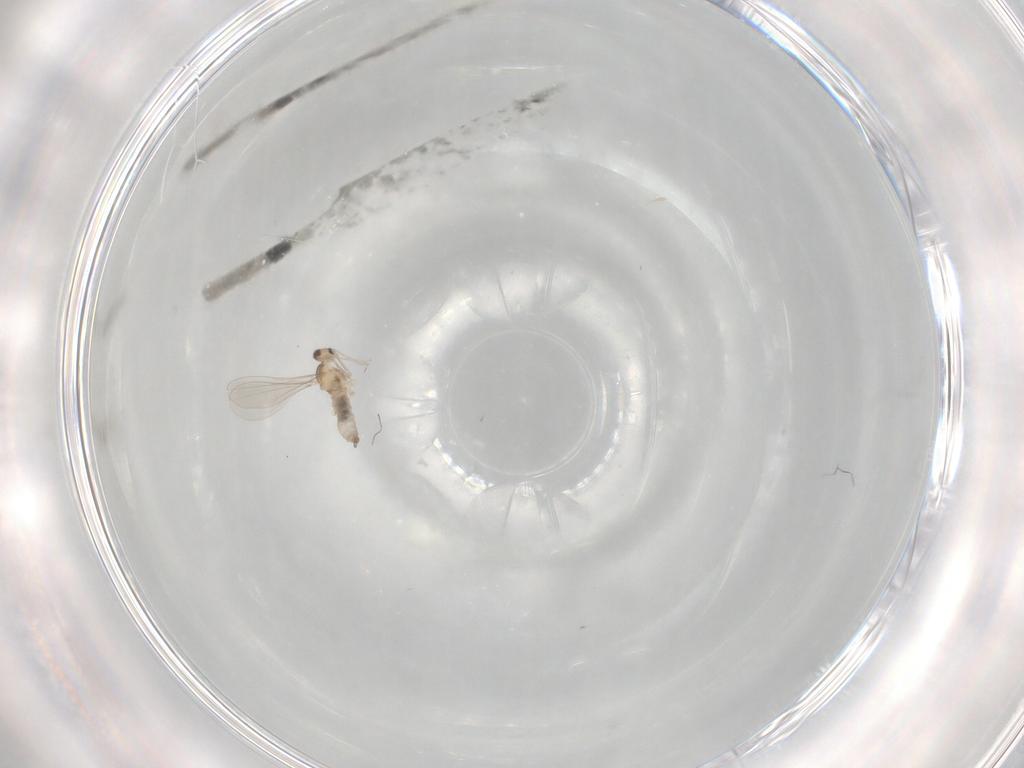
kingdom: Animalia
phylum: Arthropoda
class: Insecta
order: Diptera
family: Cecidomyiidae
